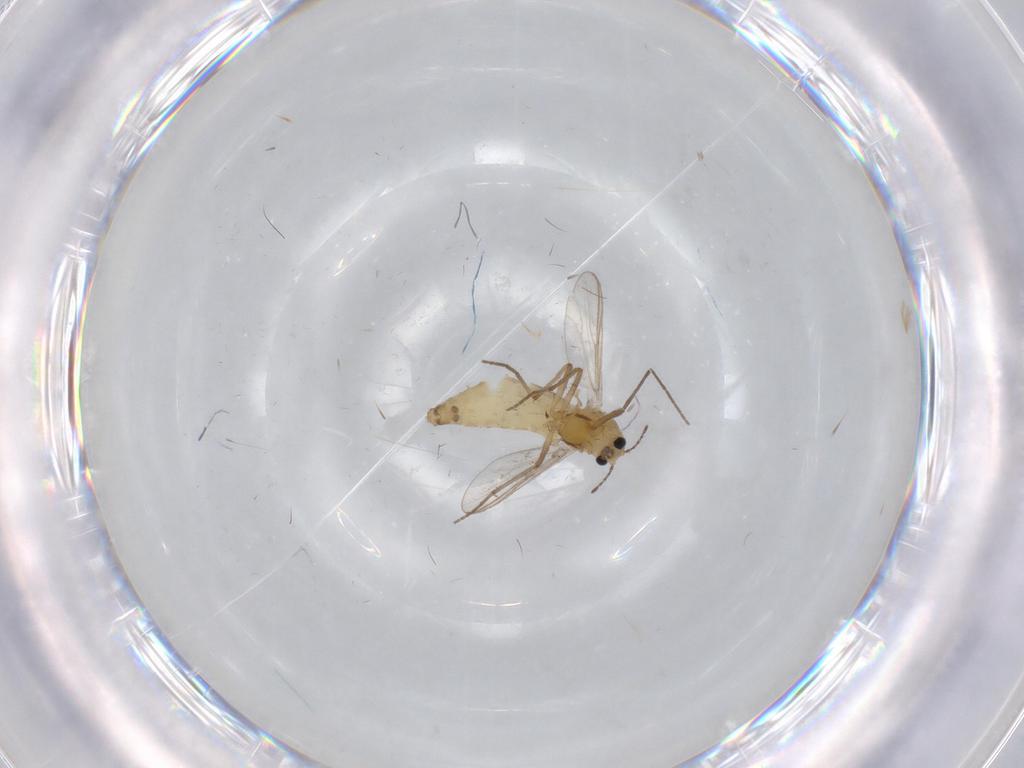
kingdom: Animalia
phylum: Arthropoda
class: Insecta
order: Diptera
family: Chironomidae
